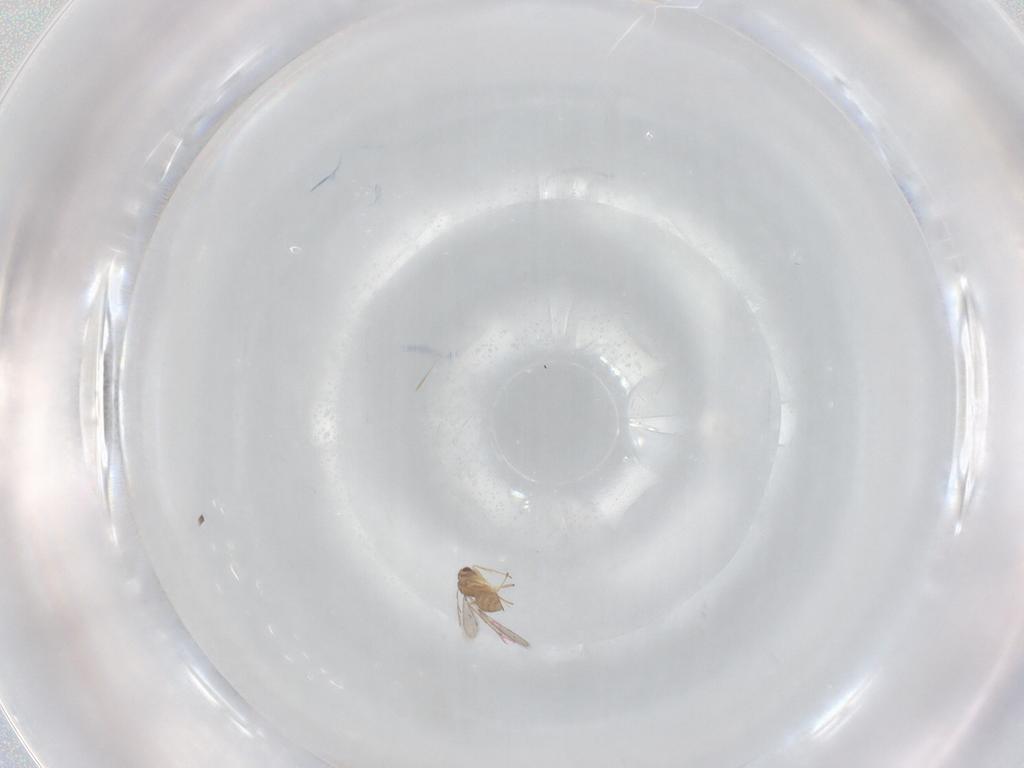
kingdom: Animalia
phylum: Arthropoda
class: Insecta
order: Hymenoptera
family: Mymaridae
